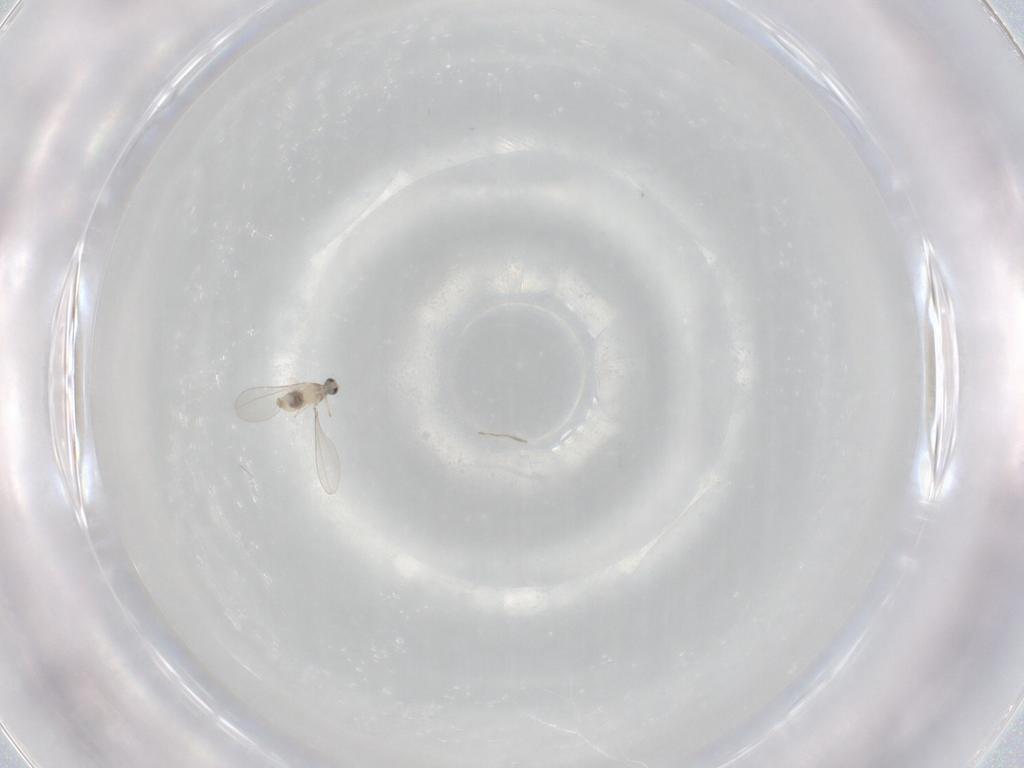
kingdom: Animalia
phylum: Arthropoda
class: Insecta
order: Diptera
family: Cecidomyiidae
